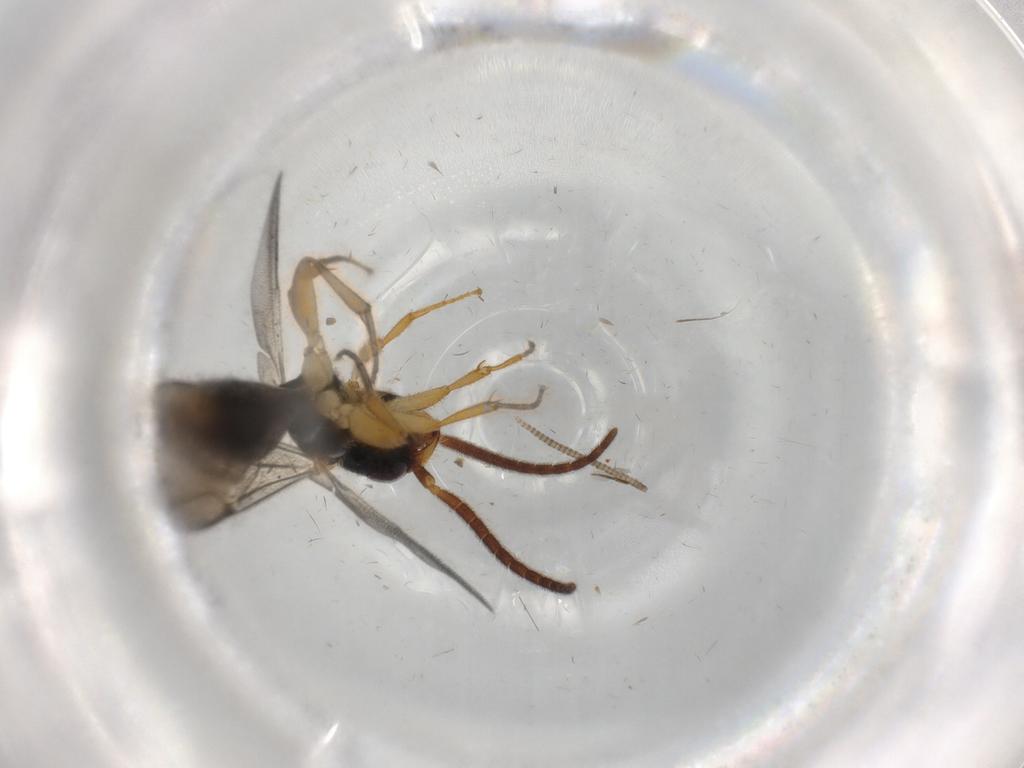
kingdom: Animalia
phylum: Arthropoda
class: Insecta
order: Hymenoptera
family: Bethylidae
